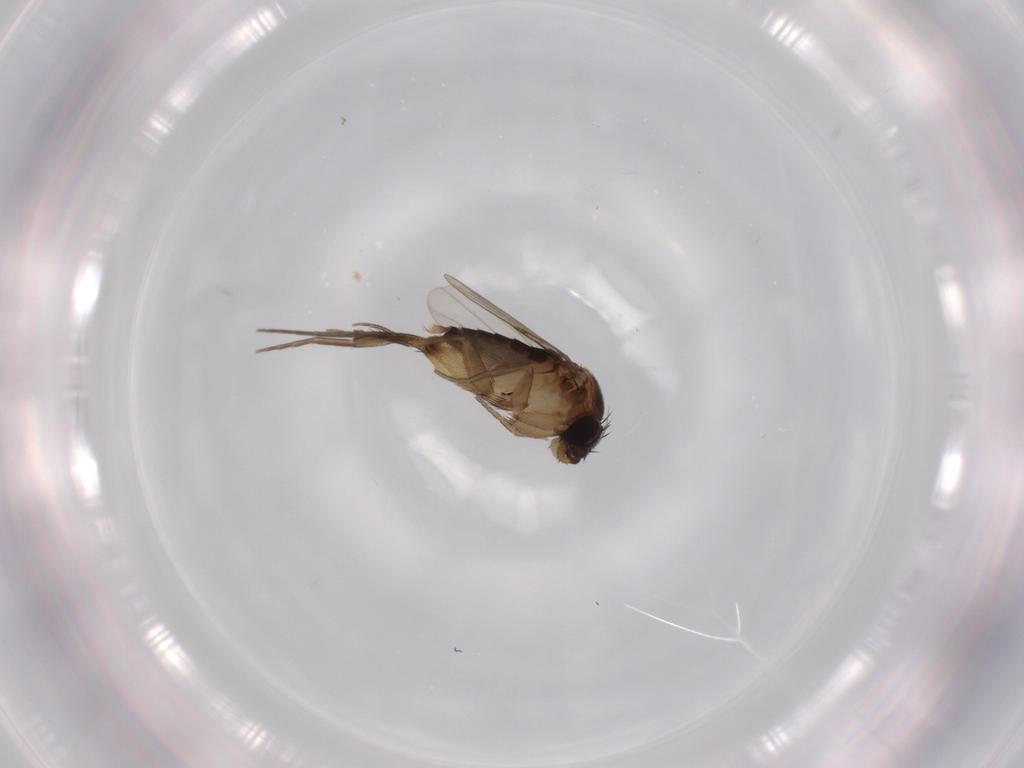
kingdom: Animalia
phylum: Arthropoda
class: Insecta
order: Diptera
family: Phoridae
